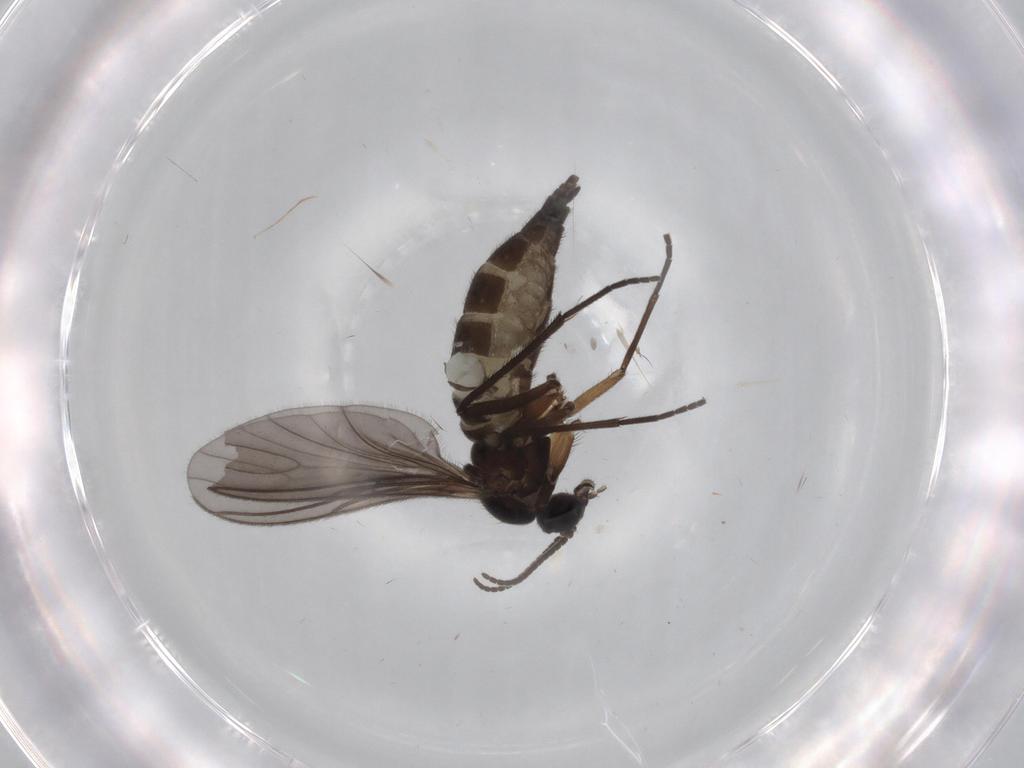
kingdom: Animalia
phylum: Arthropoda
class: Insecta
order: Diptera
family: Sciaridae
